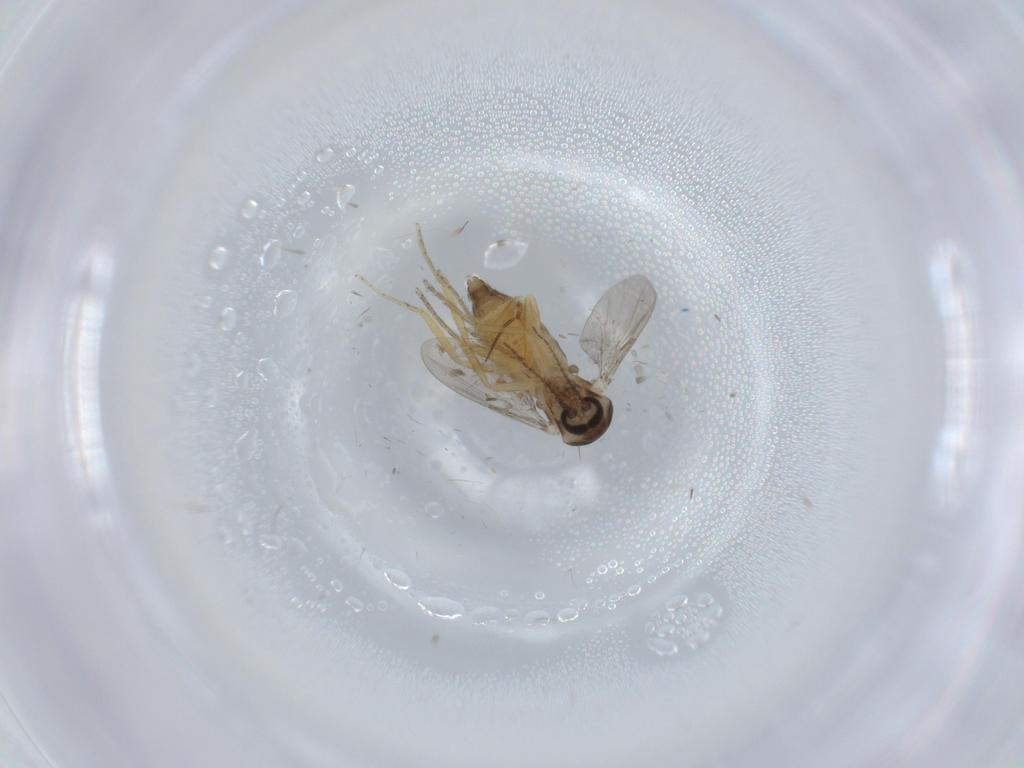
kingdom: Animalia
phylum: Arthropoda
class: Insecta
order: Diptera
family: Ceratopogonidae
